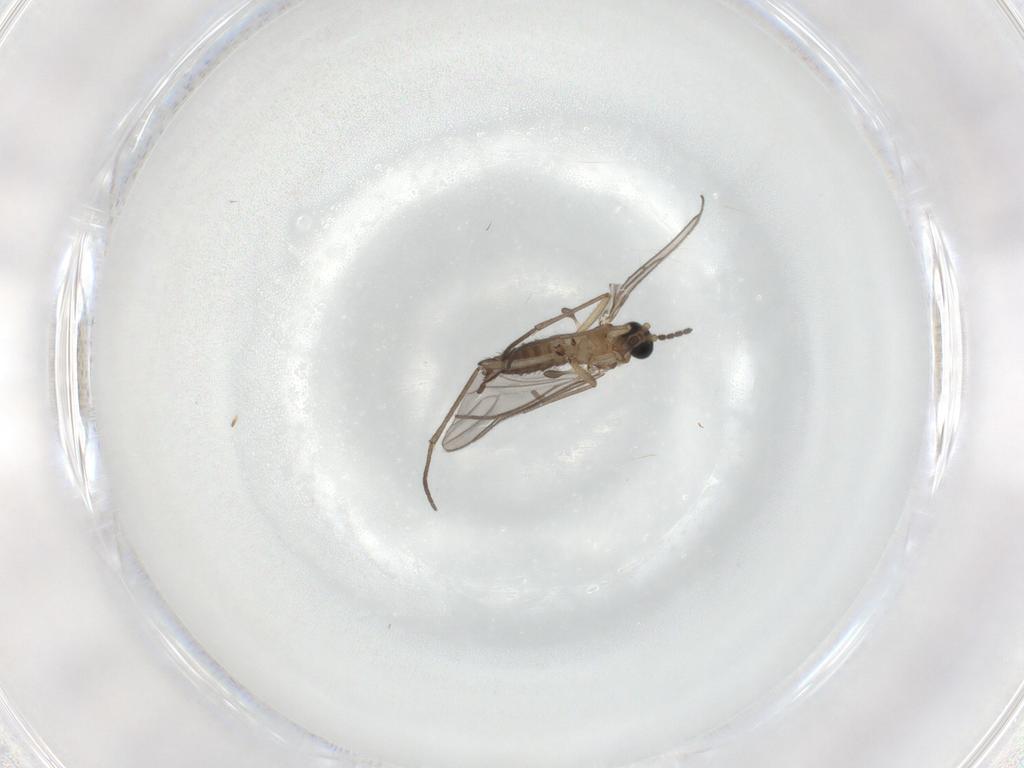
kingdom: Animalia
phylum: Arthropoda
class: Insecta
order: Diptera
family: Sciaridae
